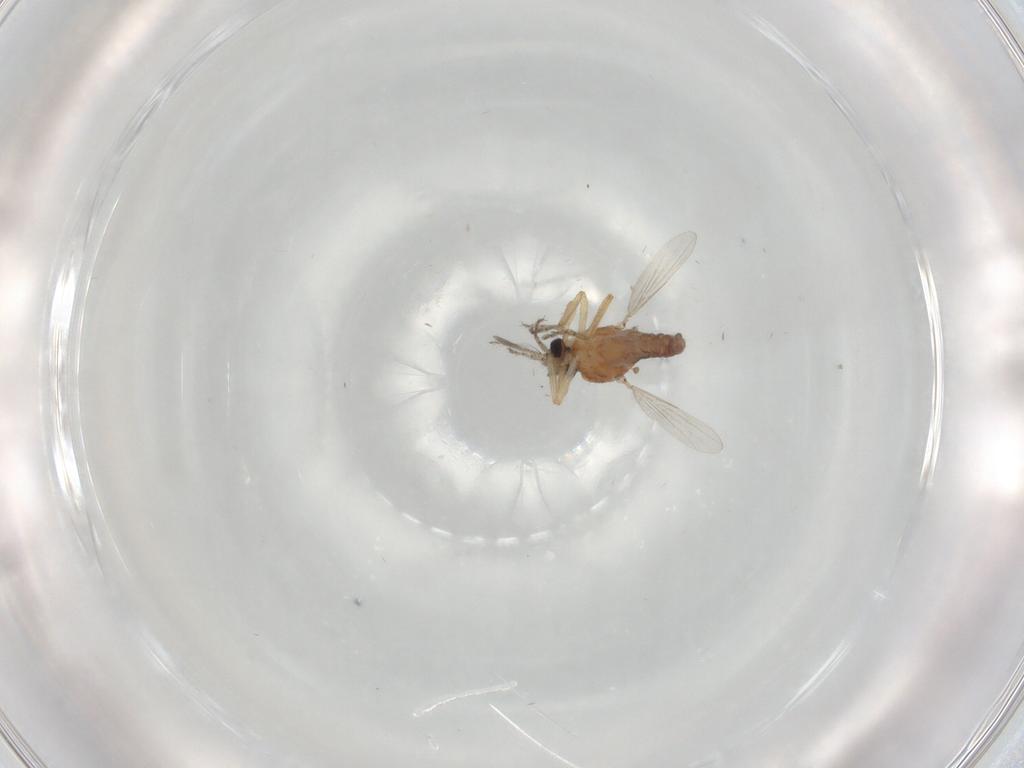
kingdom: Animalia
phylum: Arthropoda
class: Insecta
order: Diptera
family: Ceratopogonidae
